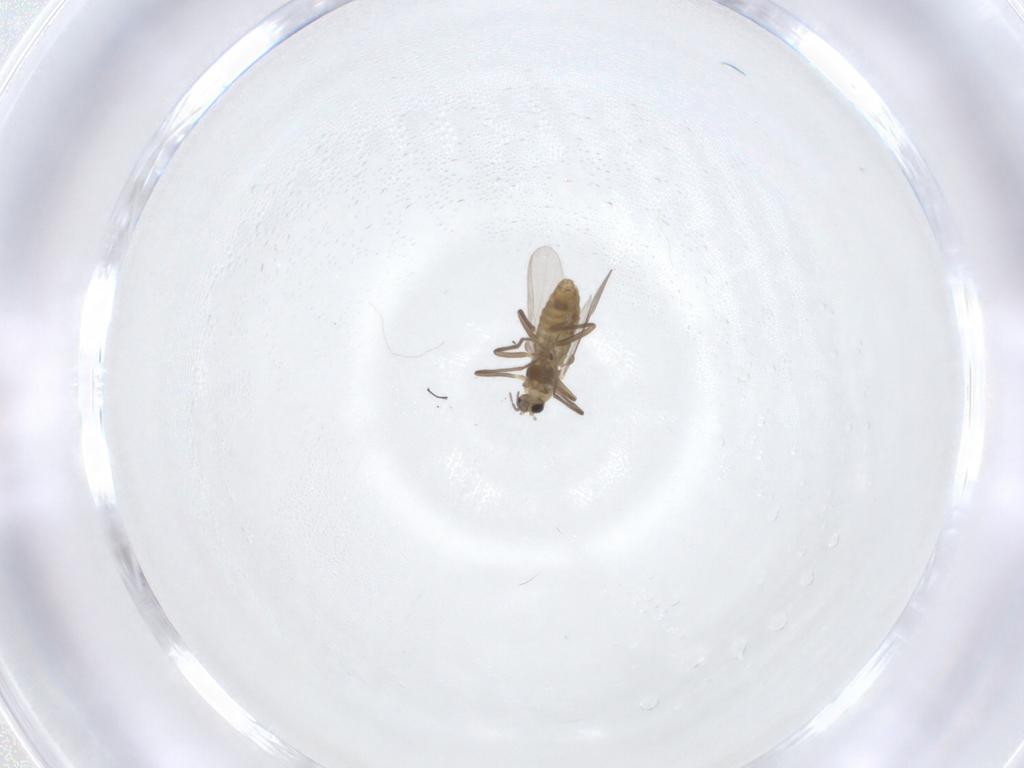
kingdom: Animalia
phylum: Arthropoda
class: Insecta
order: Diptera
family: Chironomidae
